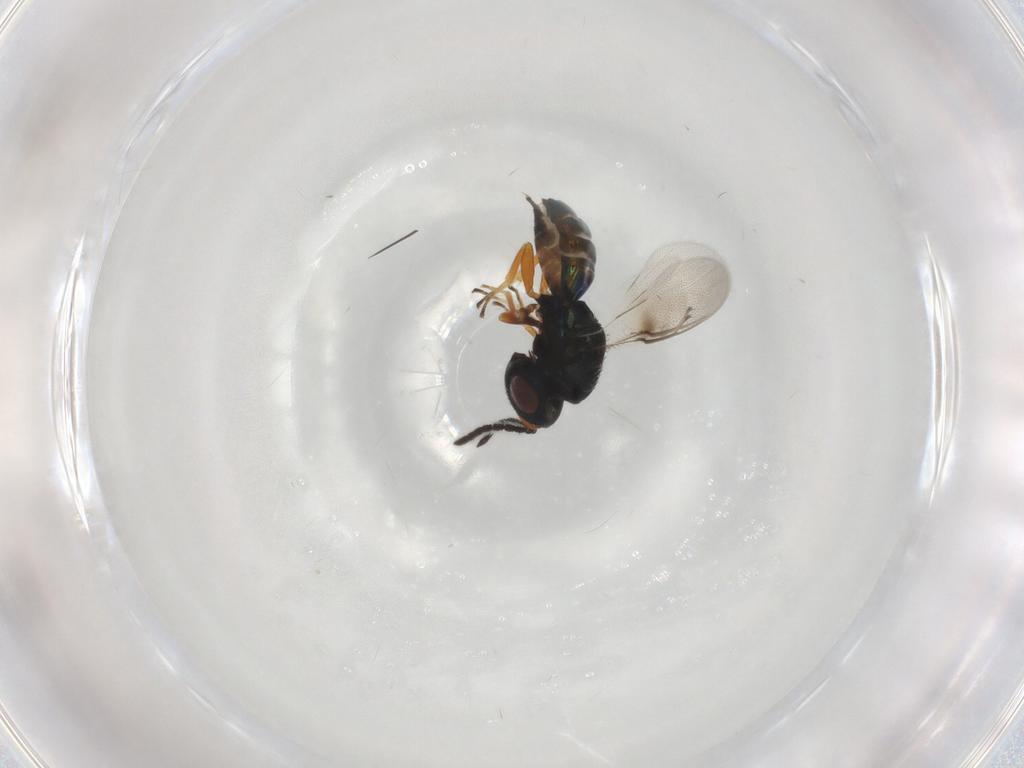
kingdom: Animalia
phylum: Arthropoda
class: Insecta
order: Hymenoptera
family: Pteromalidae
